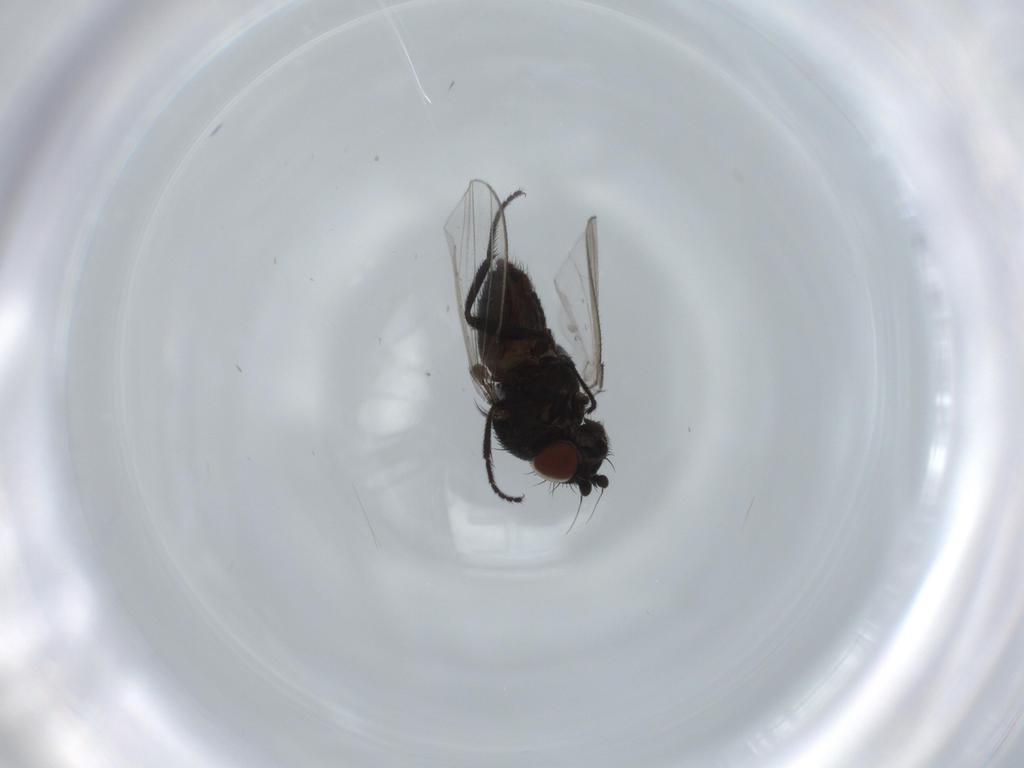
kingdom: Animalia
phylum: Arthropoda
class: Insecta
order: Diptera
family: Milichiidae
